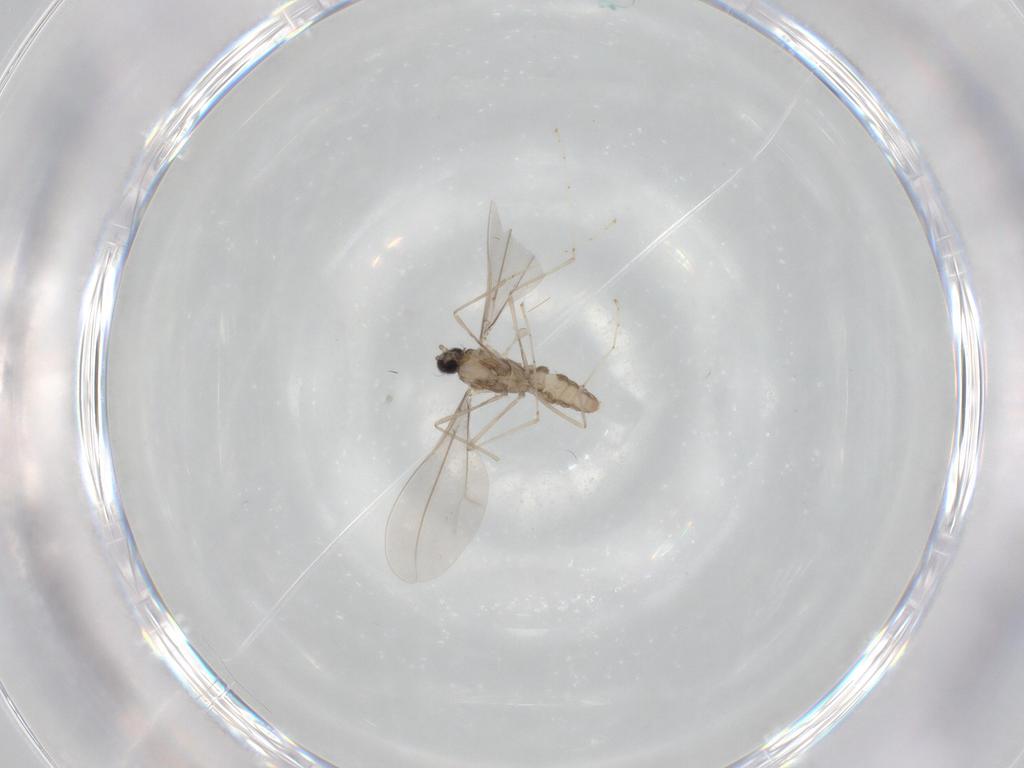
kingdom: Animalia
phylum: Arthropoda
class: Insecta
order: Diptera
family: Cecidomyiidae
